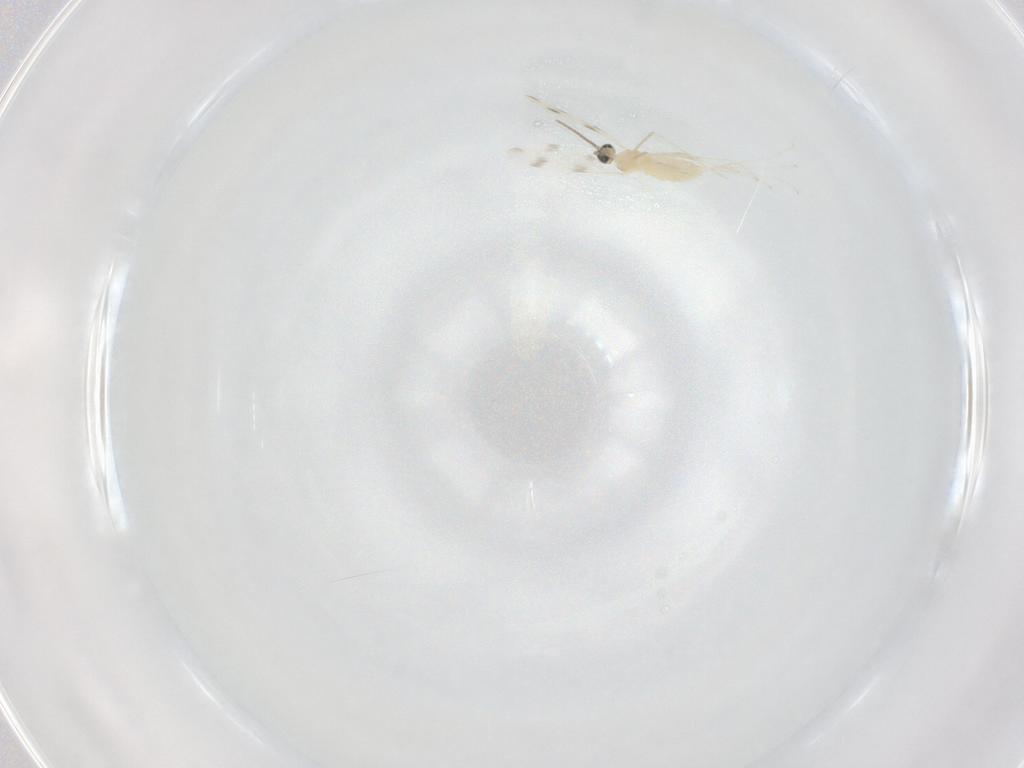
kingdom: Animalia
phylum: Arthropoda
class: Insecta
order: Diptera
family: Cecidomyiidae
